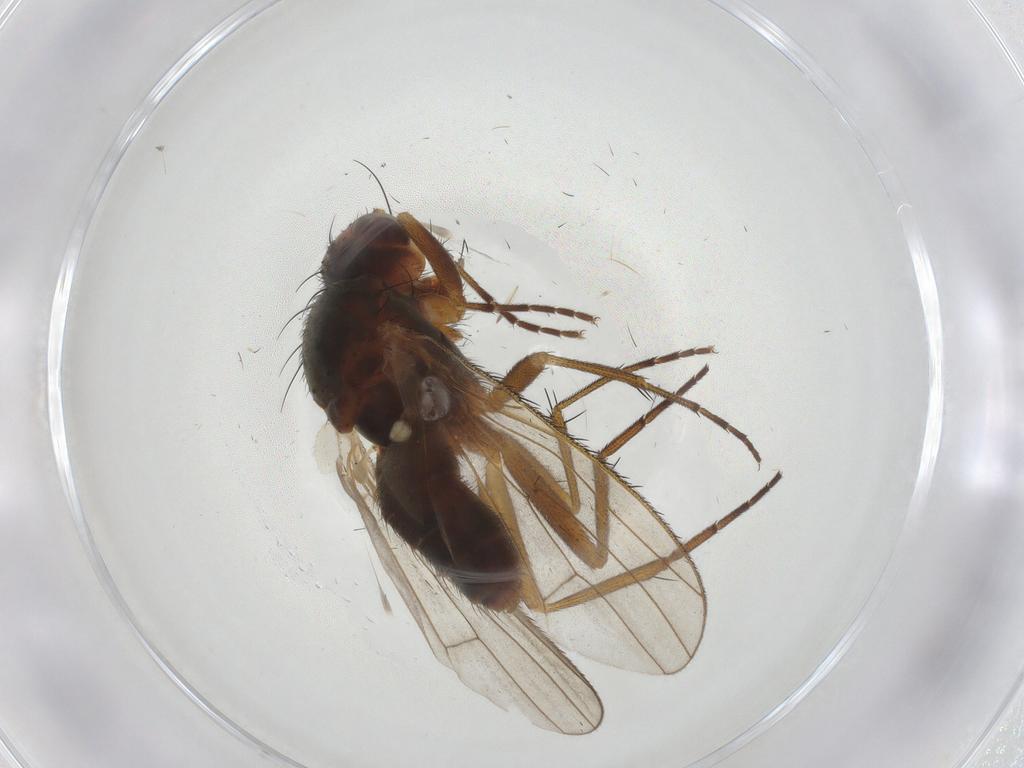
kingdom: Animalia
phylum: Arthropoda
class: Insecta
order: Diptera
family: Heleomyzidae
